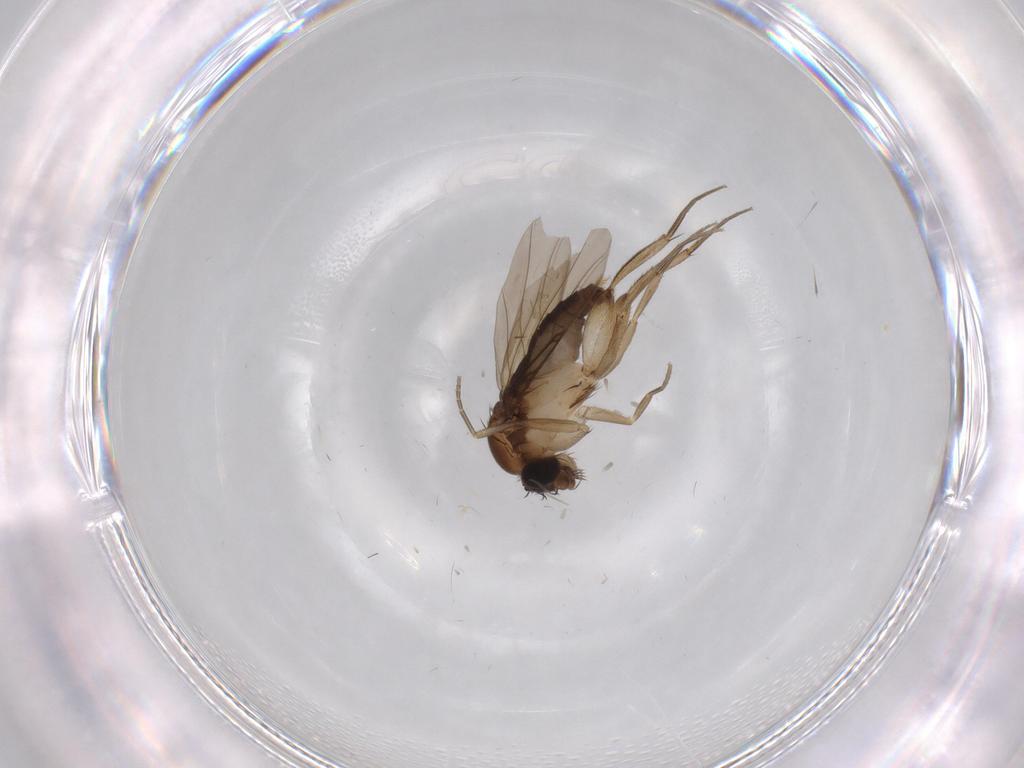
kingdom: Animalia
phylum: Arthropoda
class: Insecta
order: Diptera
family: Phoridae
